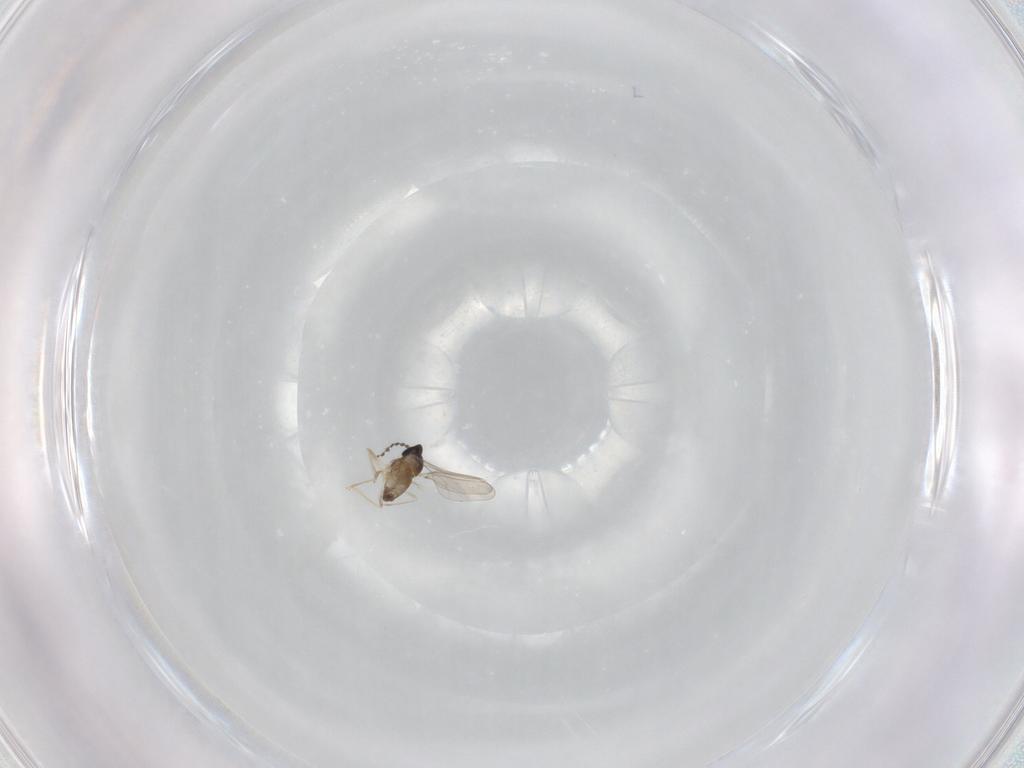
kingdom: Animalia
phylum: Arthropoda
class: Insecta
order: Diptera
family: Cecidomyiidae
